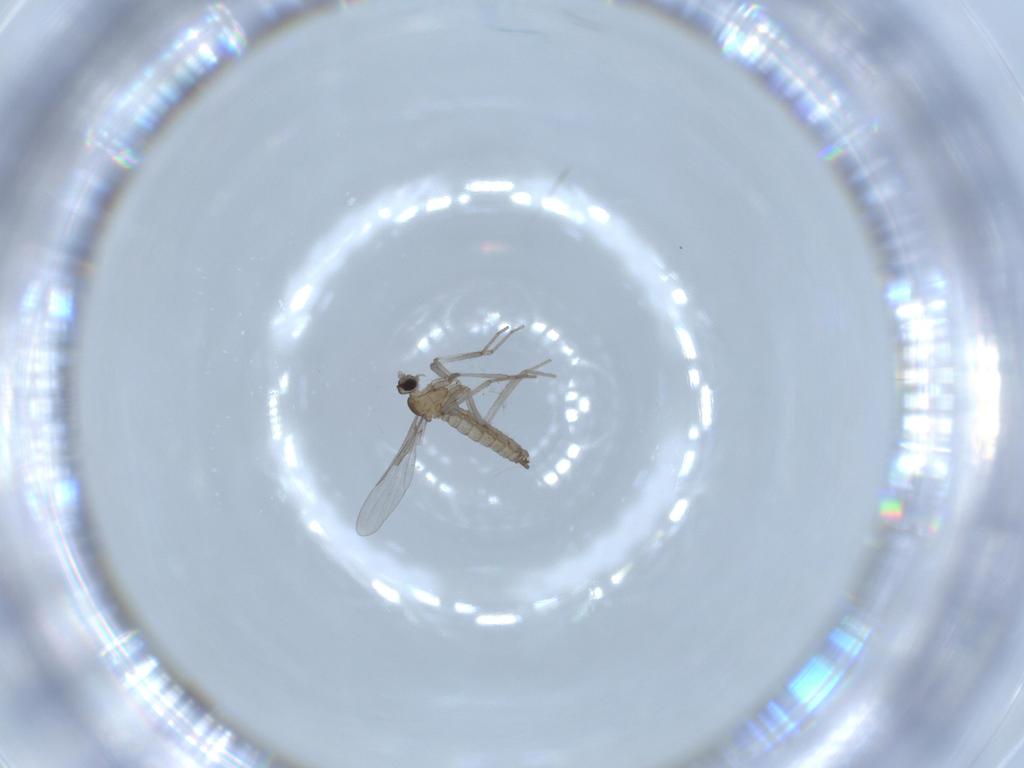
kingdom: Animalia
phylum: Arthropoda
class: Insecta
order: Diptera
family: Cecidomyiidae
